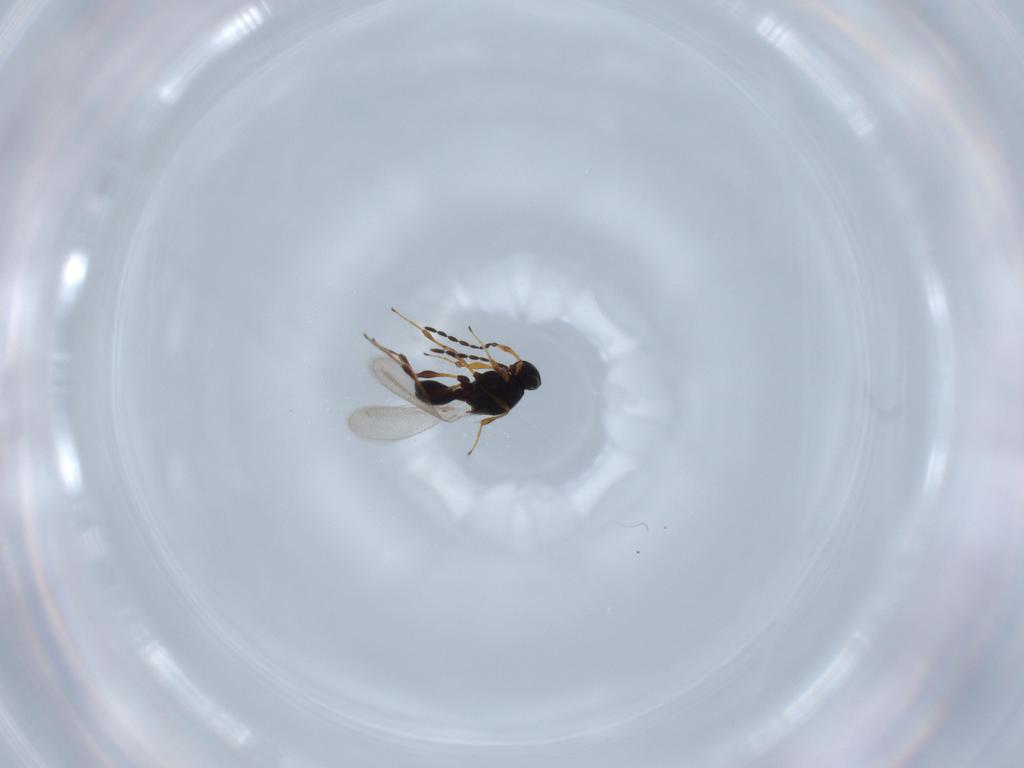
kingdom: Animalia
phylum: Arthropoda
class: Insecta
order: Hymenoptera
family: Platygastridae
